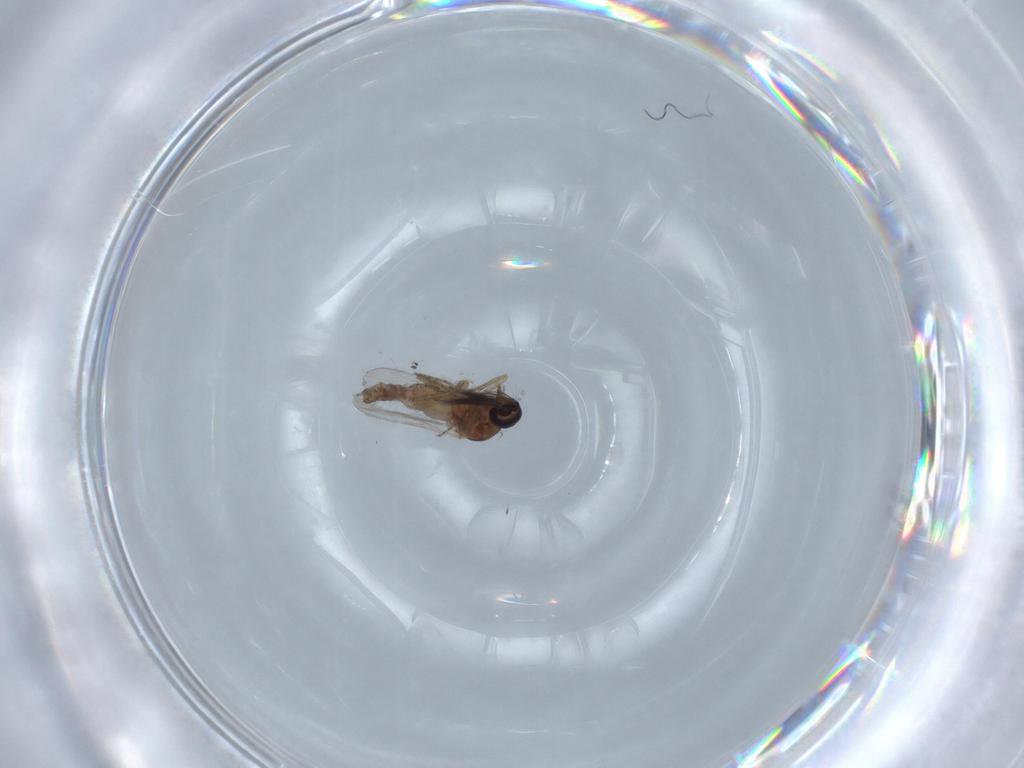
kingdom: Animalia
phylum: Arthropoda
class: Insecta
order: Diptera
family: Ceratopogonidae
